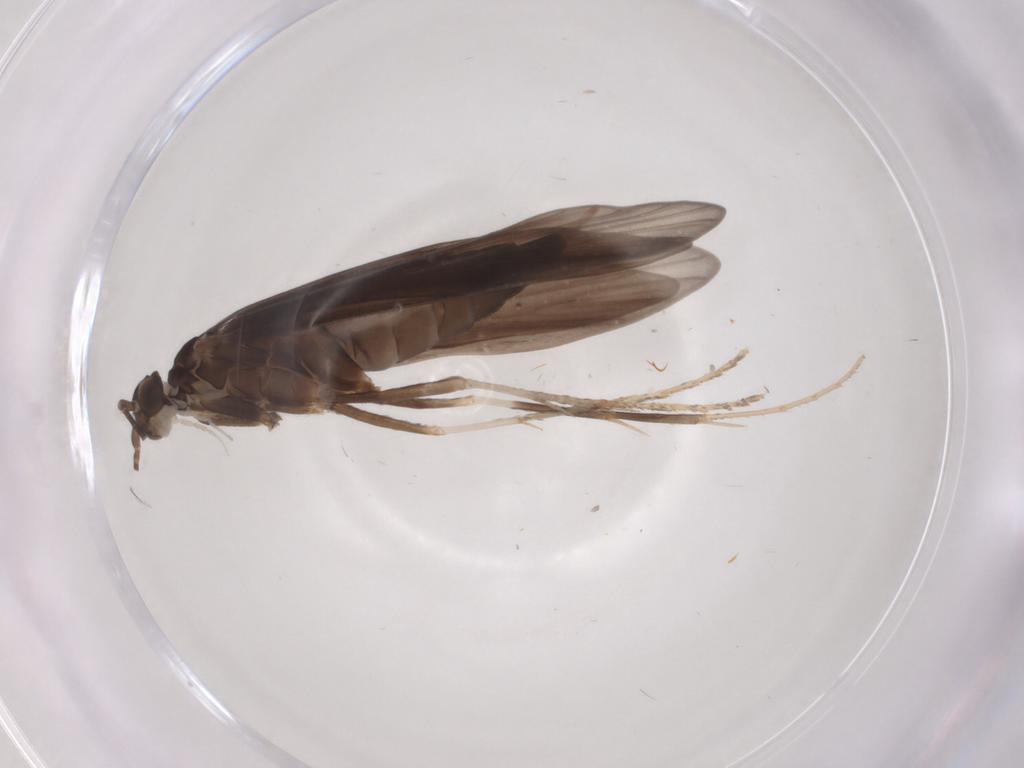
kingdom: Animalia
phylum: Arthropoda
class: Insecta
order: Trichoptera
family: Xiphocentronidae
